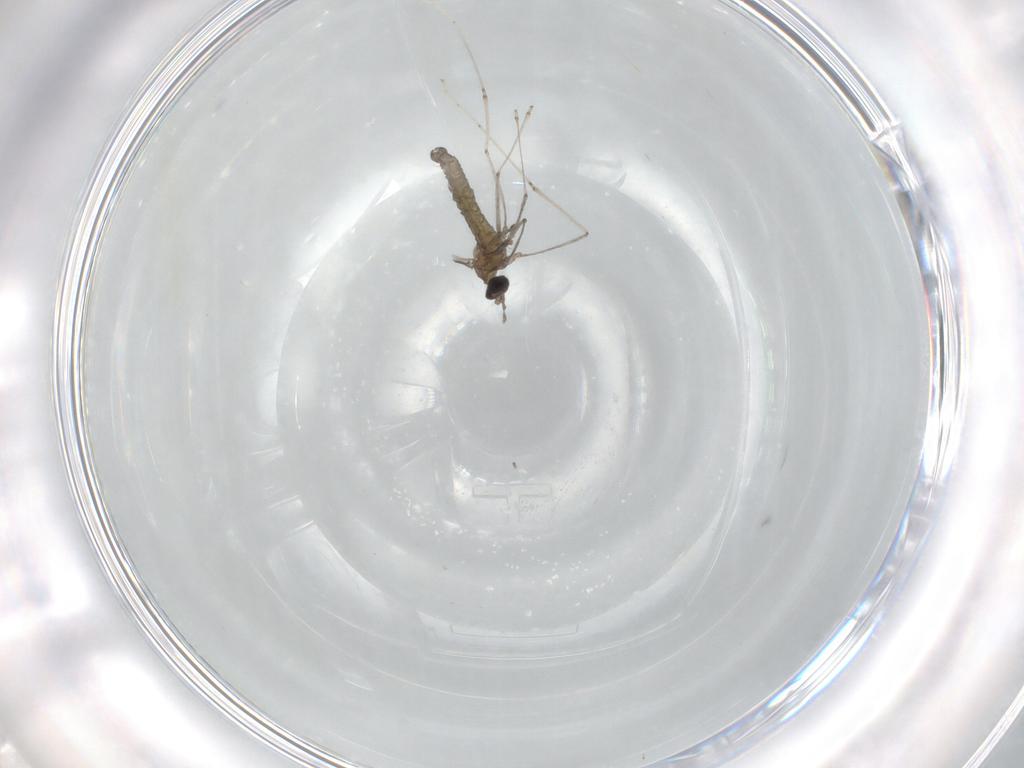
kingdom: Animalia
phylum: Arthropoda
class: Insecta
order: Diptera
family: Cecidomyiidae
